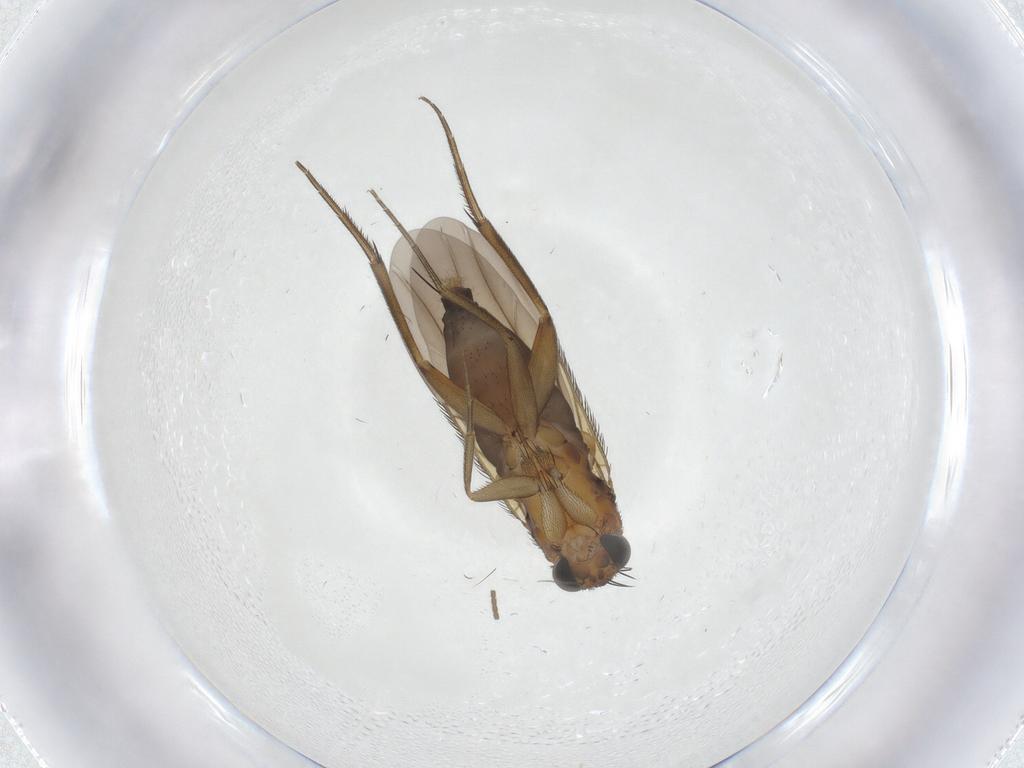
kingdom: Animalia
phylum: Arthropoda
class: Insecta
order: Diptera
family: Phoridae
